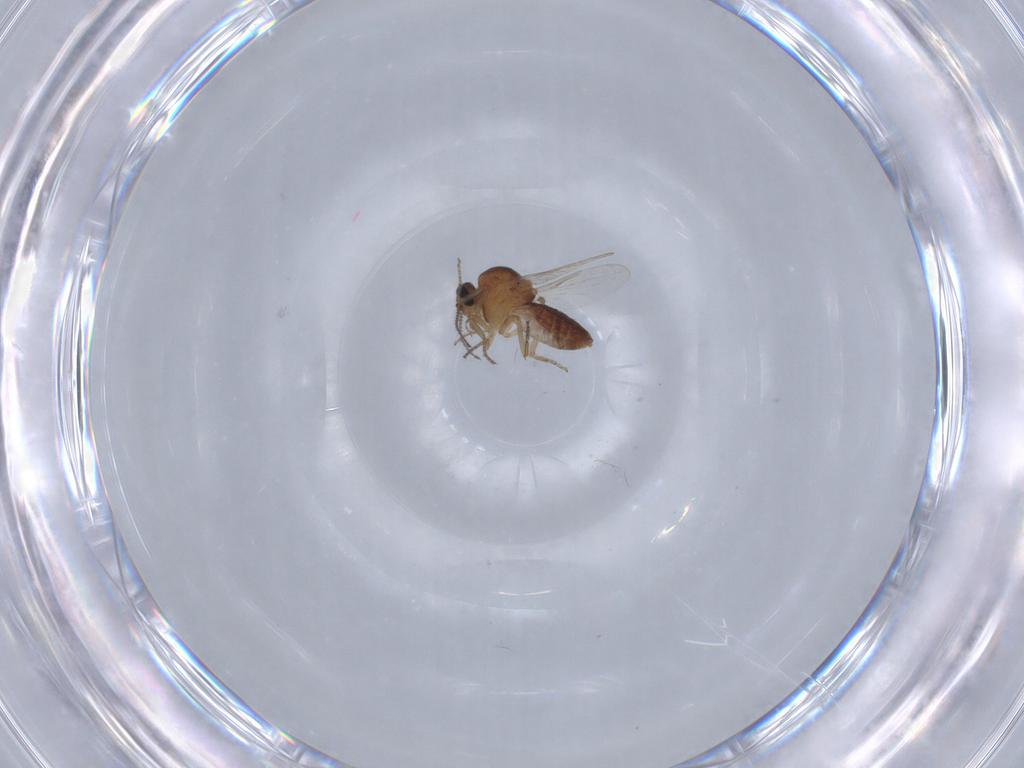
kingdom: Animalia
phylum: Arthropoda
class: Insecta
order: Diptera
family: Ceratopogonidae
